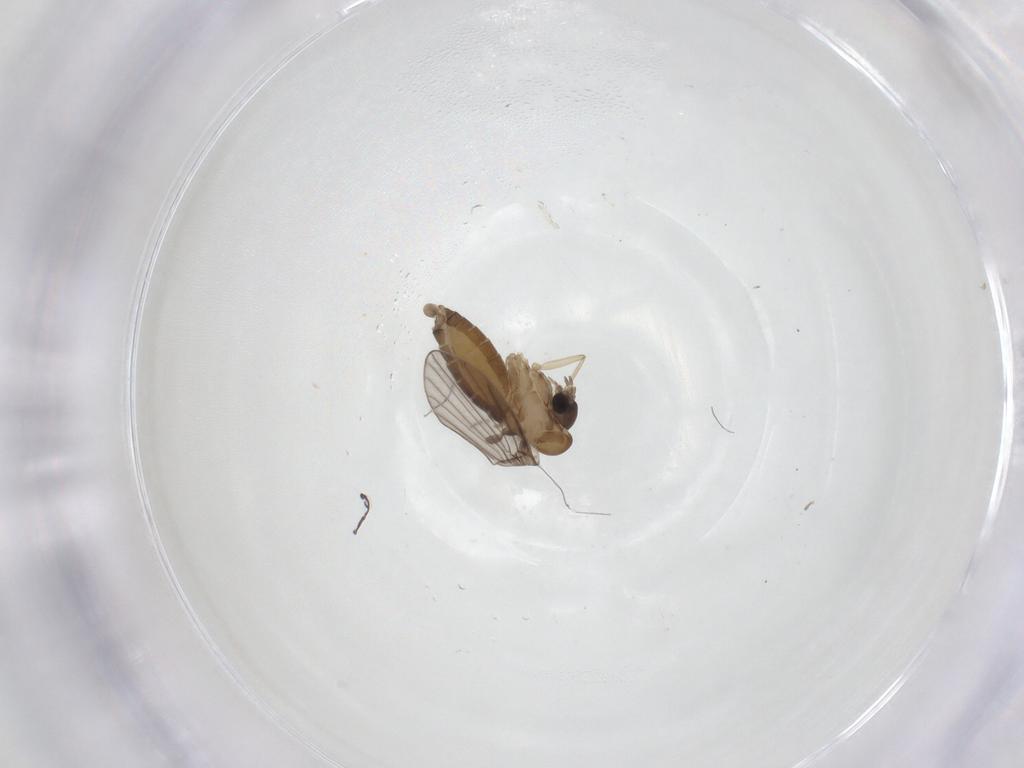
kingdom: Animalia
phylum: Arthropoda
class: Insecta
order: Diptera
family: Psychodidae
